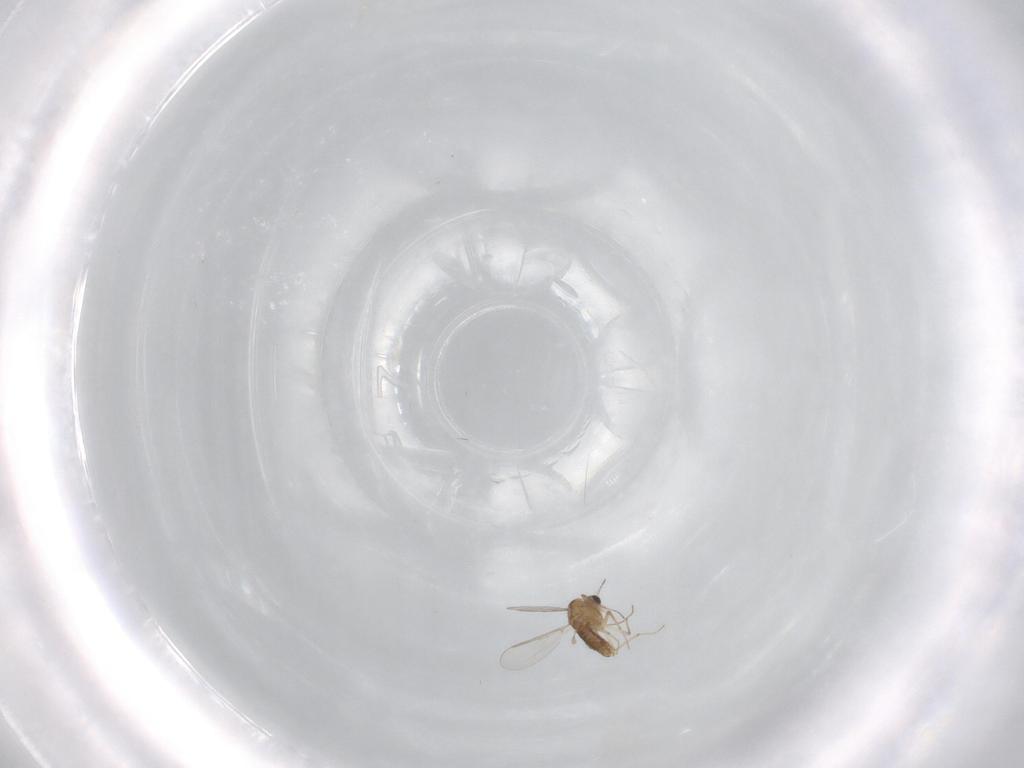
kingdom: Animalia
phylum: Arthropoda
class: Insecta
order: Diptera
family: Chironomidae
